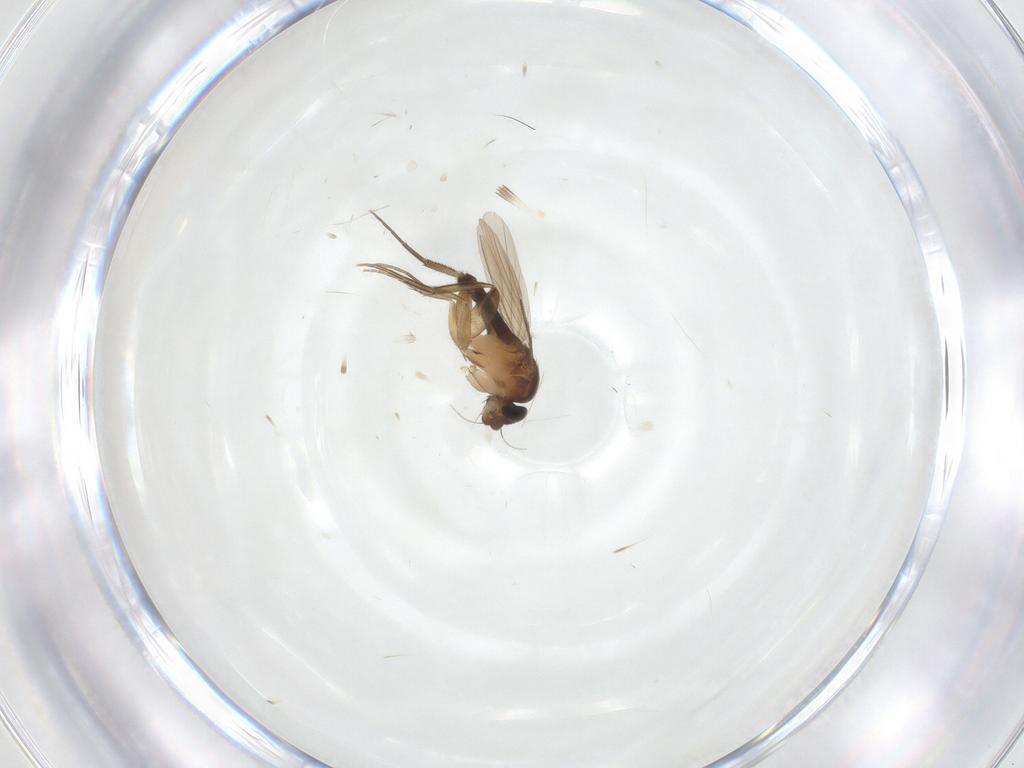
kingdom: Animalia
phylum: Arthropoda
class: Insecta
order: Diptera
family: Phoridae
